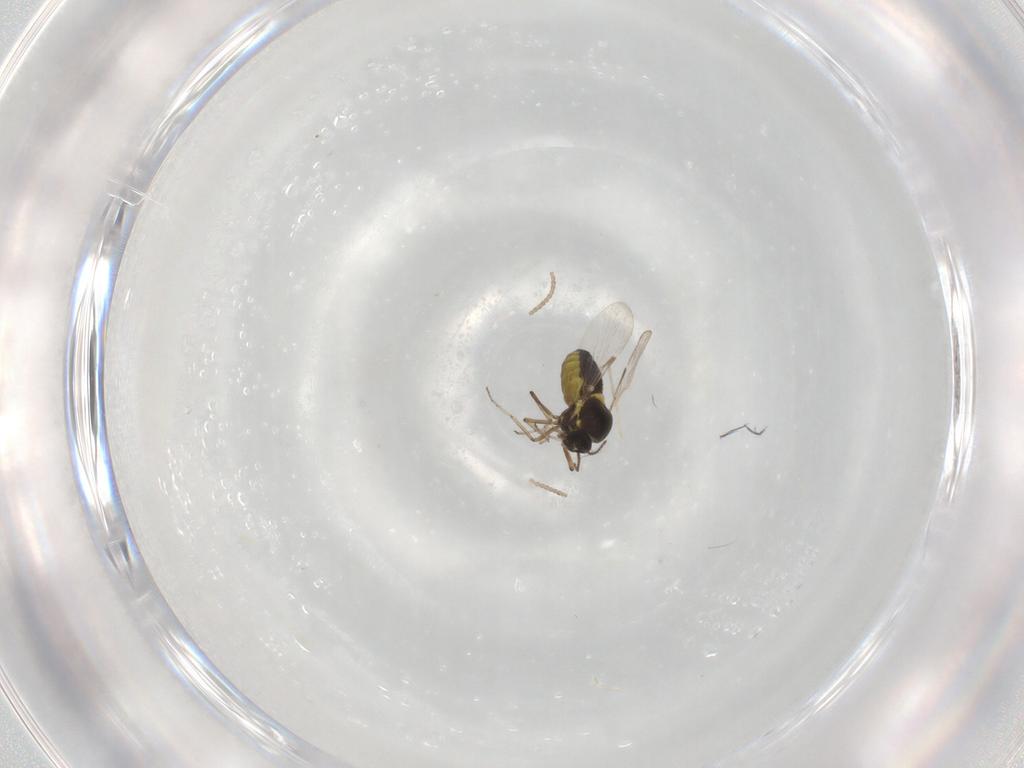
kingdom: Animalia
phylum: Arthropoda
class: Insecta
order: Diptera
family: Ceratopogonidae
